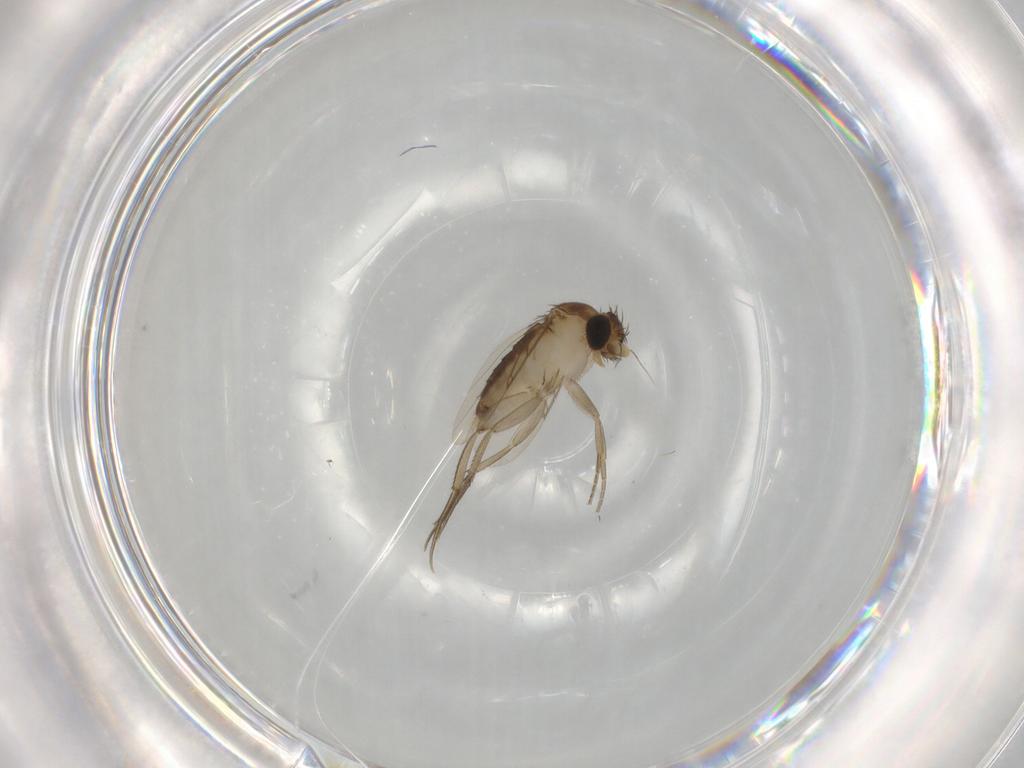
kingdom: Animalia
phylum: Arthropoda
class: Insecta
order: Diptera
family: Phoridae
